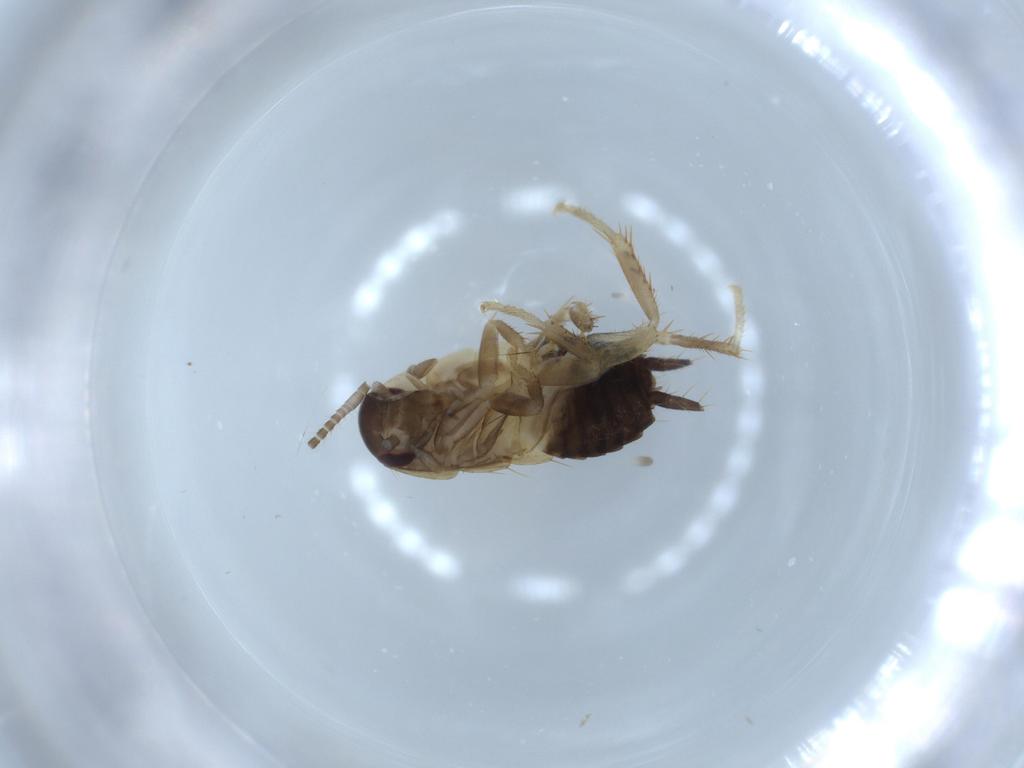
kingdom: Animalia
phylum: Arthropoda
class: Insecta
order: Blattodea
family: Ectobiidae
